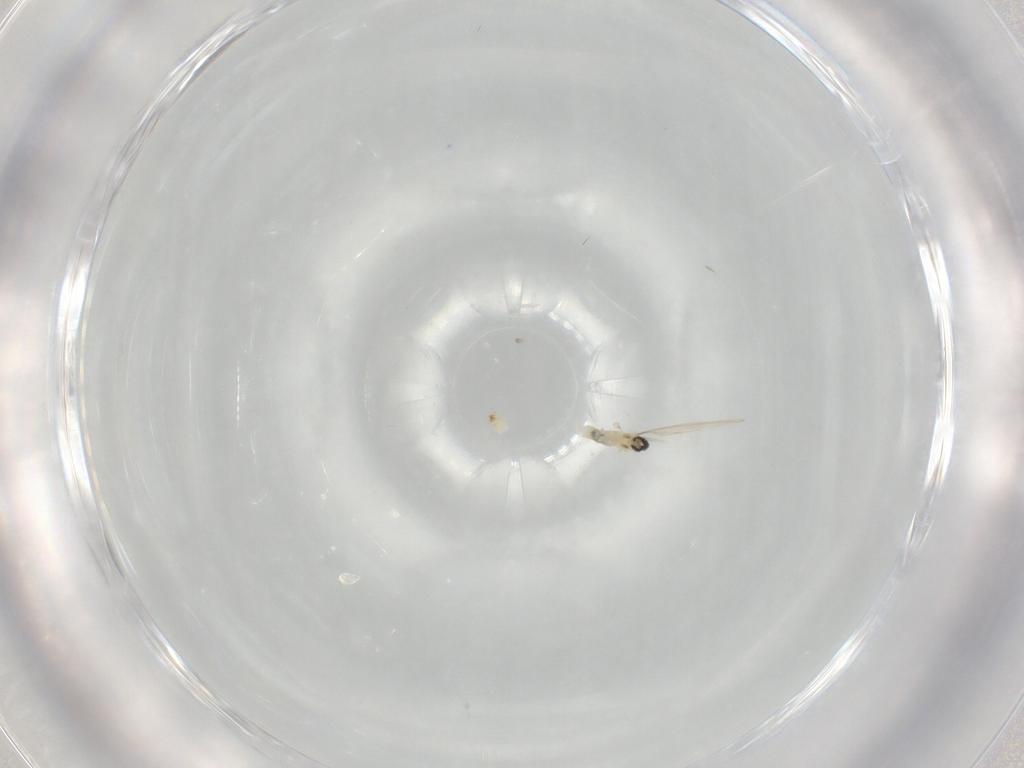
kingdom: Animalia
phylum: Arthropoda
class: Insecta
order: Diptera
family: Cecidomyiidae
